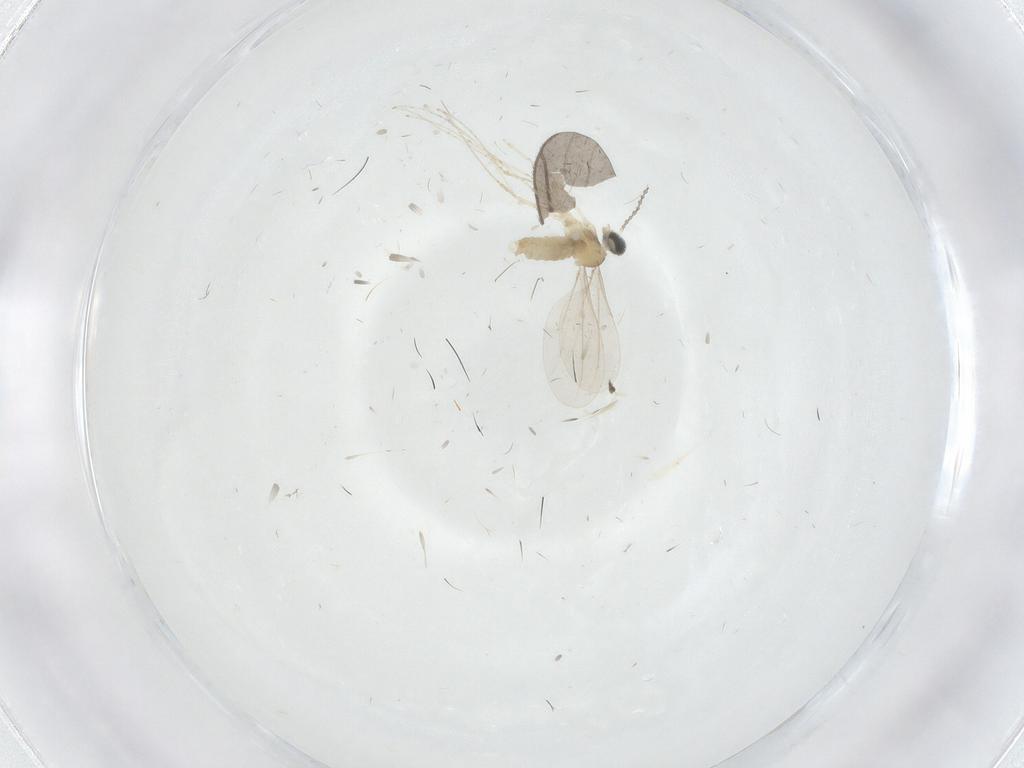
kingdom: Animalia
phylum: Arthropoda
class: Insecta
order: Diptera
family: Cecidomyiidae
